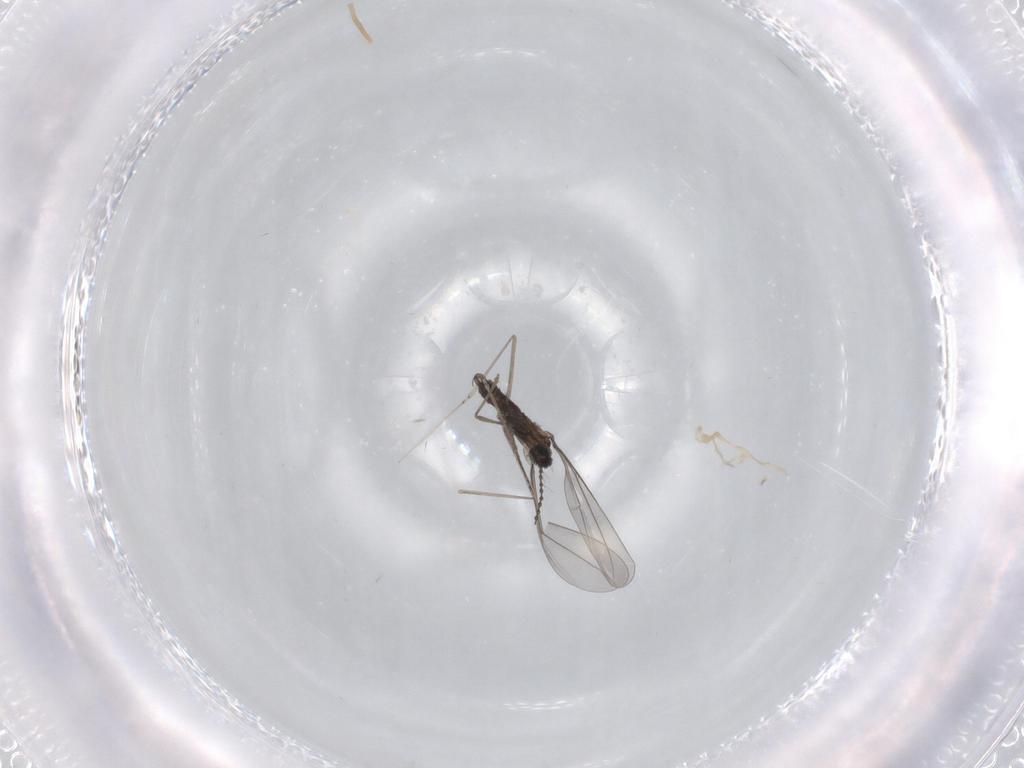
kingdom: Animalia
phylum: Arthropoda
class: Insecta
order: Diptera
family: Cecidomyiidae
